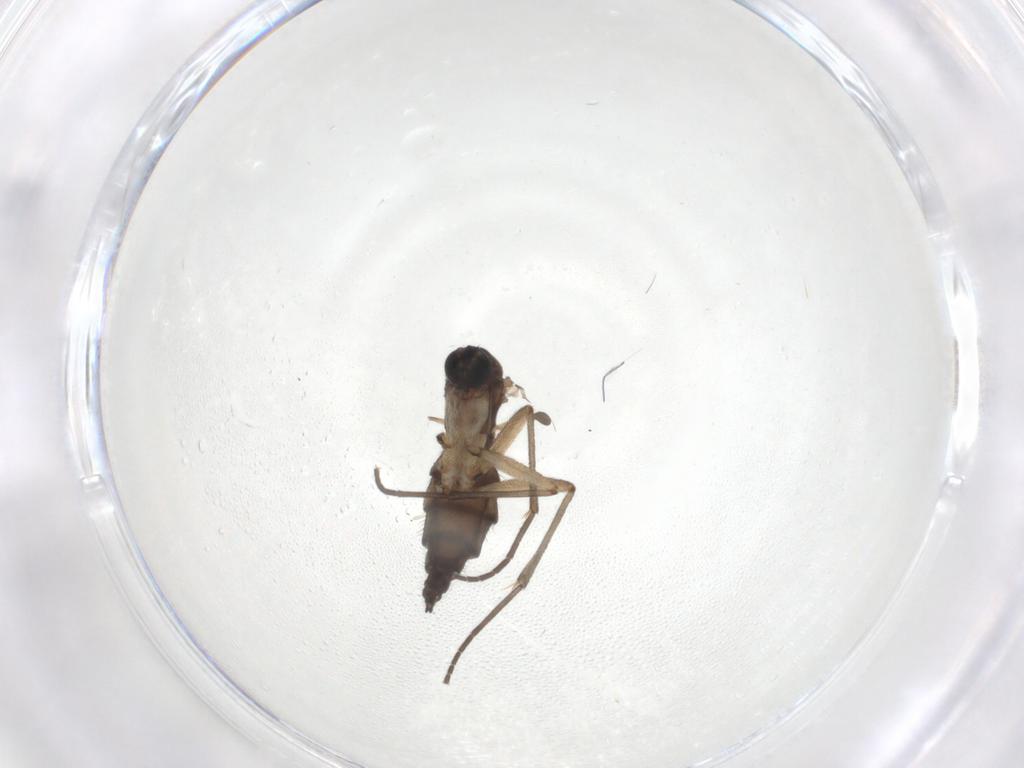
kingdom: Animalia
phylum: Arthropoda
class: Insecta
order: Diptera
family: Sciaridae
